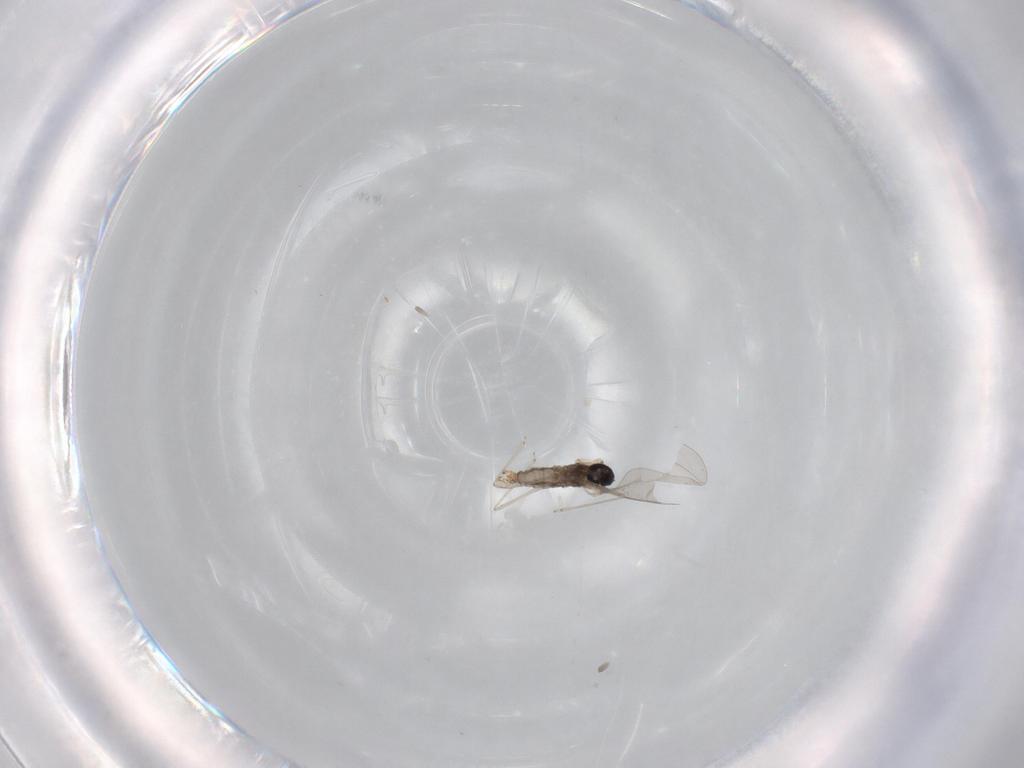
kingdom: Animalia
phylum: Arthropoda
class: Insecta
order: Diptera
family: Cecidomyiidae
